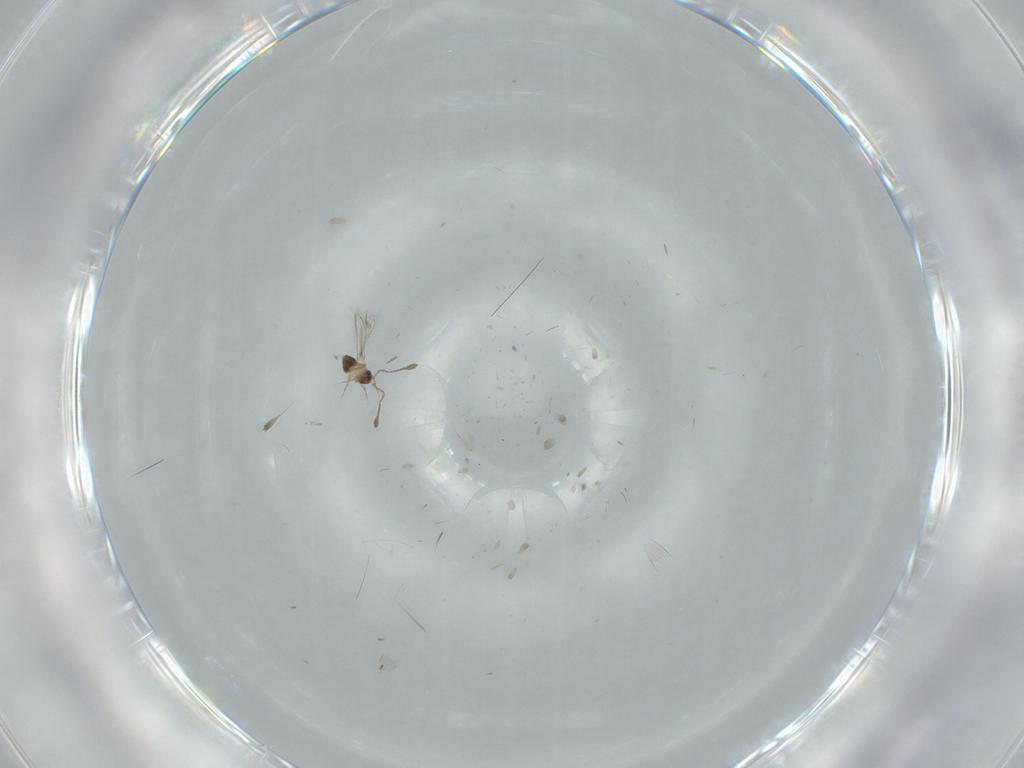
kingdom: Animalia
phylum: Arthropoda
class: Insecta
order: Hymenoptera
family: Mymaridae
